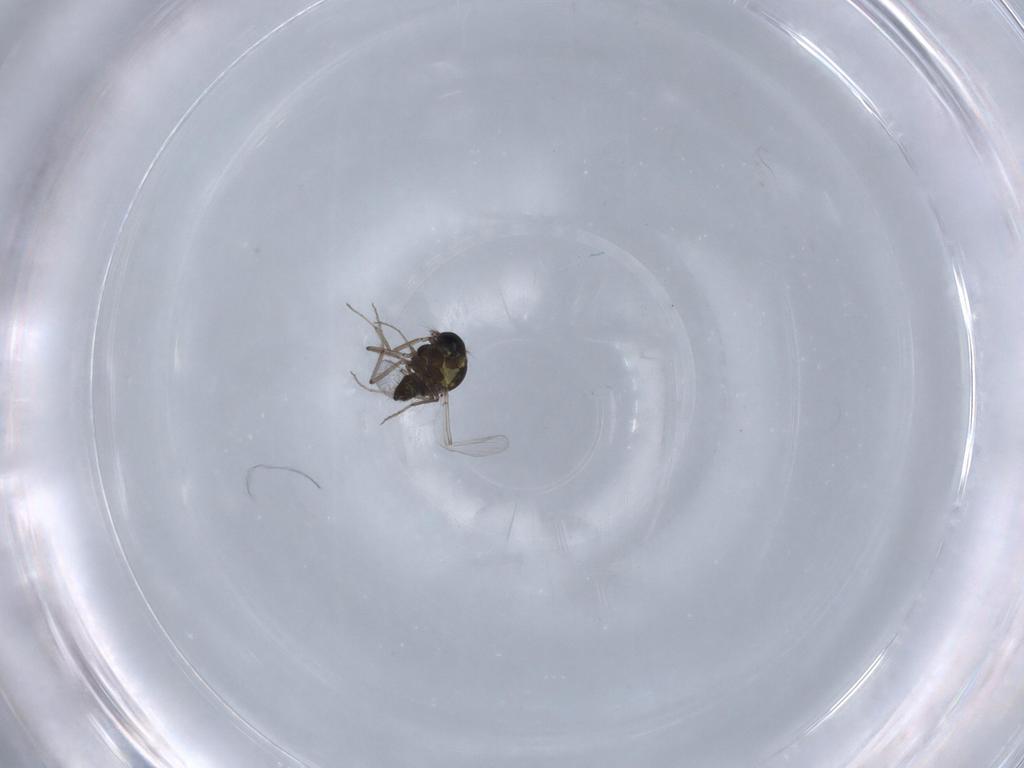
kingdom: Animalia
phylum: Arthropoda
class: Insecta
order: Diptera
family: Ceratopogonidae
